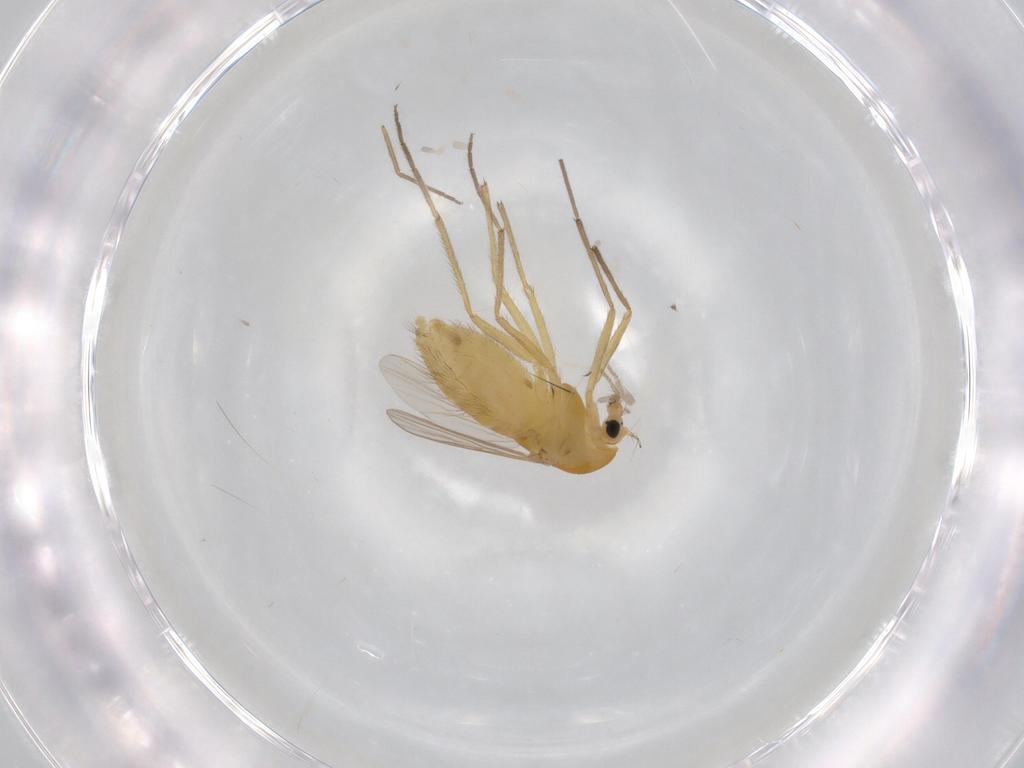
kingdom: Animalia
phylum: Arthropoda
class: Insecta
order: Diptera
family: Chironomidae
